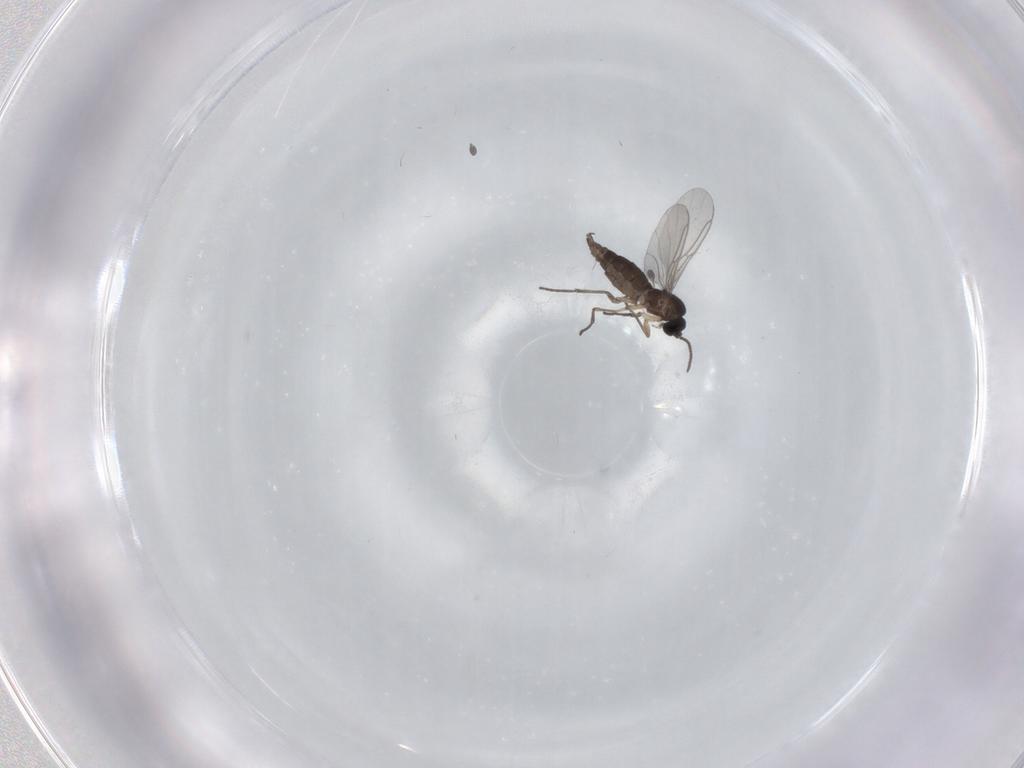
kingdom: Animalia
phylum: Arthropoda
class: Insecta
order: Diptera
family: Sciaridae
